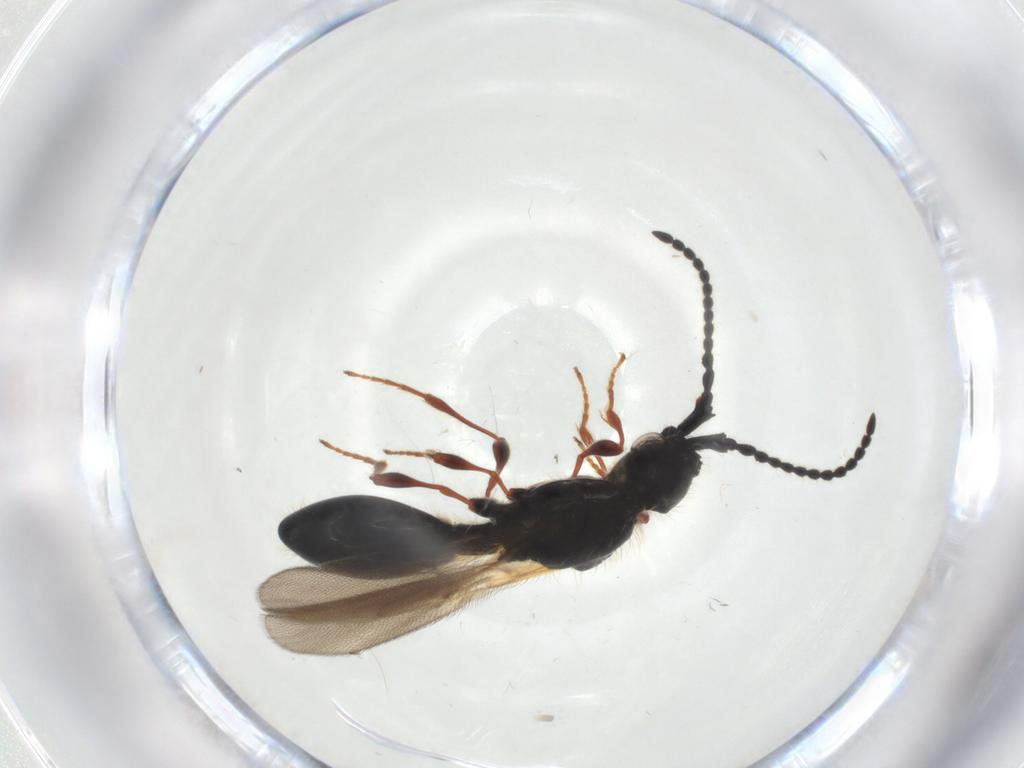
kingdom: Animalia
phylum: Arthropoda
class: Insecta
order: Hymenoptera
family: Diapriidae
